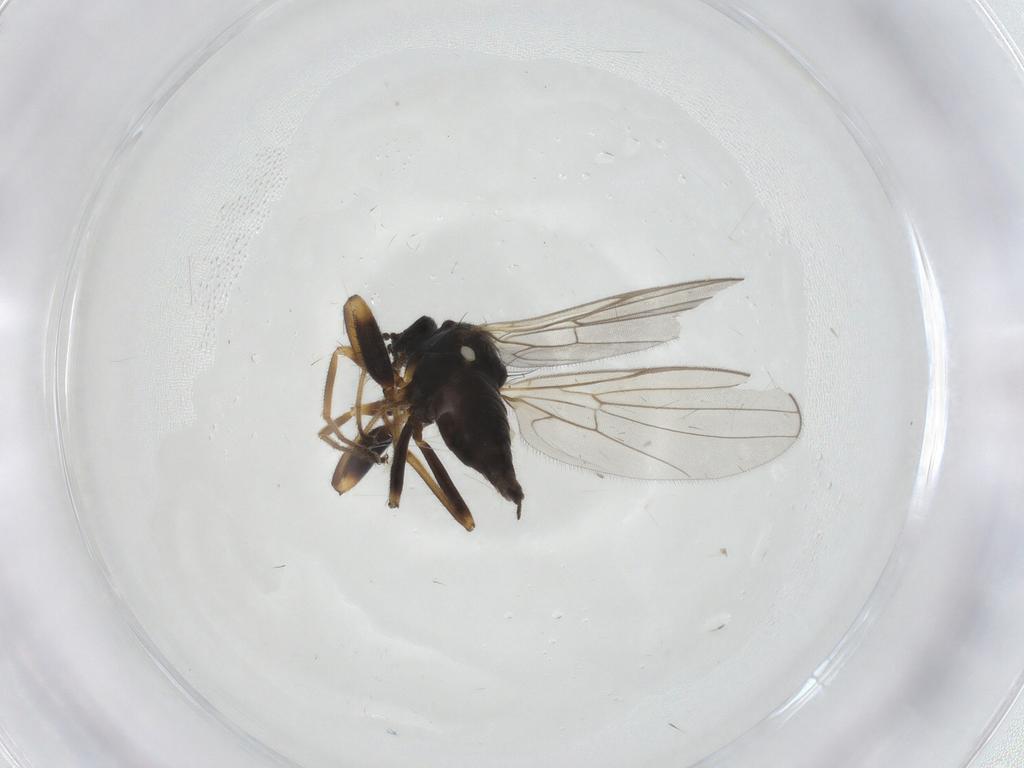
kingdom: Animalia
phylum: Arthropoda
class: Insecta
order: Diptera
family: Hybotidae
